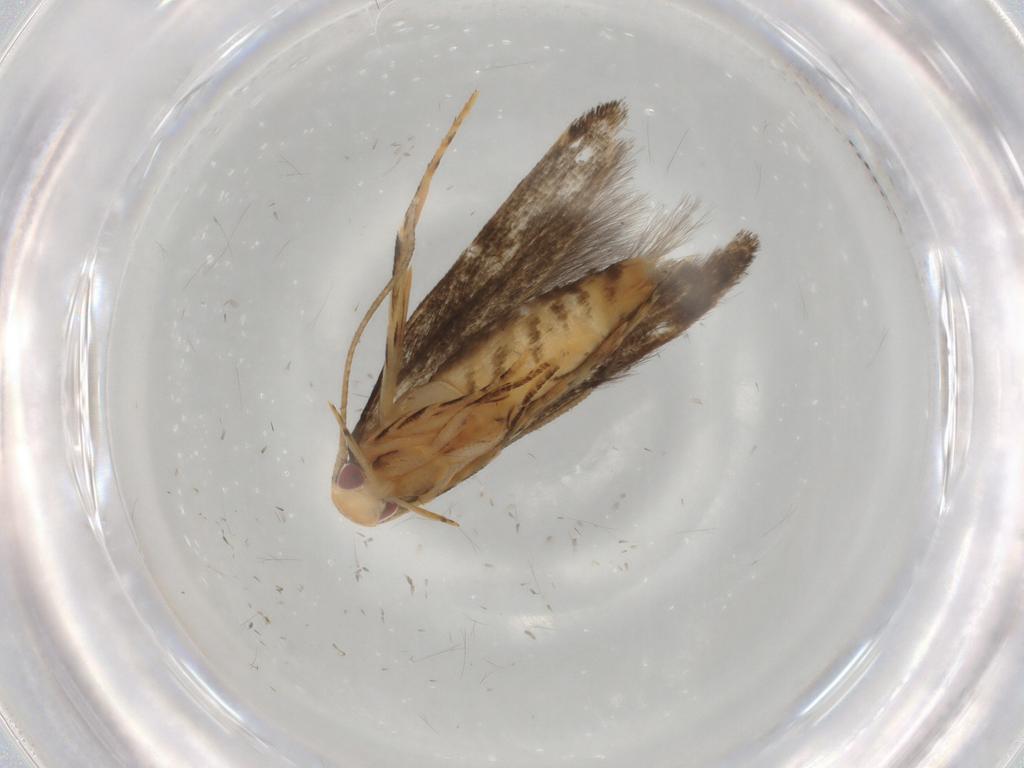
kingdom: Animalia
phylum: Arthropoda
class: Insecta
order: Lepidoptera
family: Momphidae
